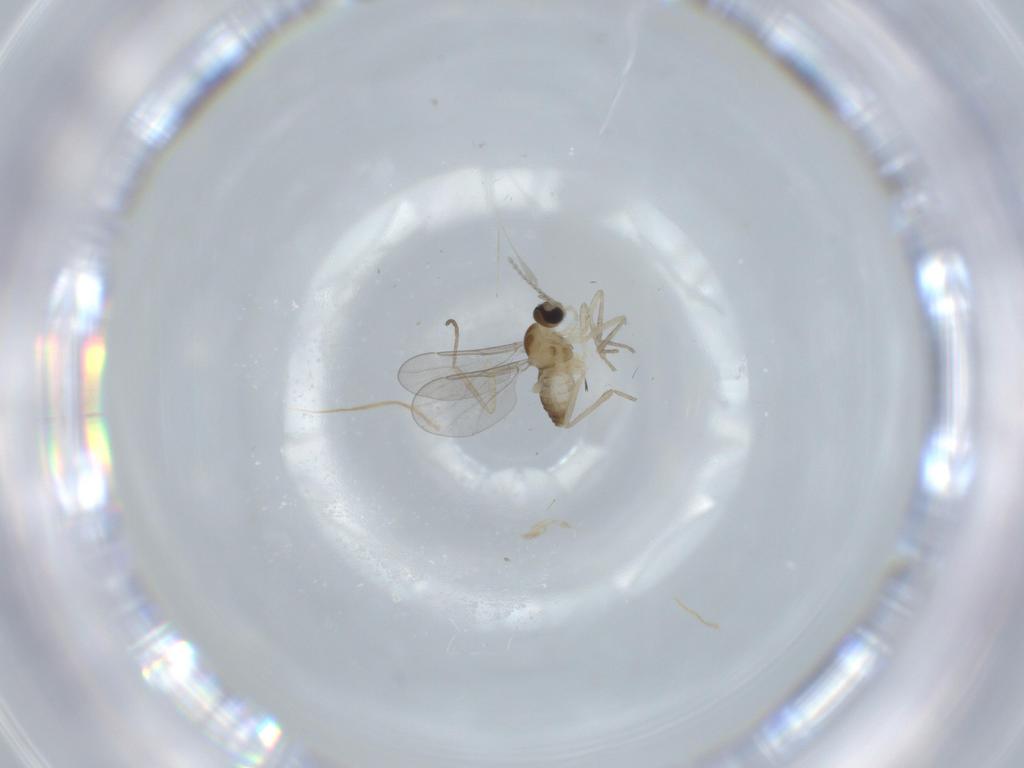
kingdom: Animalia
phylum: Arthropoda
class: Insecta
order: Diptera
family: Cecidomyiidae
